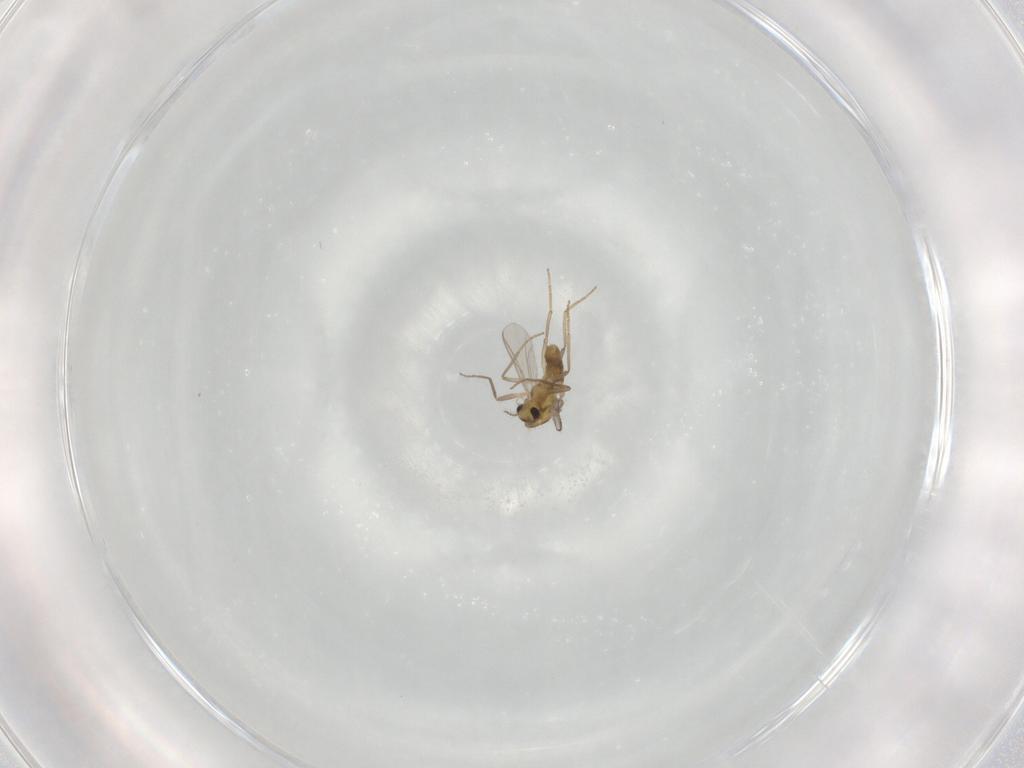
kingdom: Animalia
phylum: Arthropoda
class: Insecta
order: Diptera
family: Chironomidae
